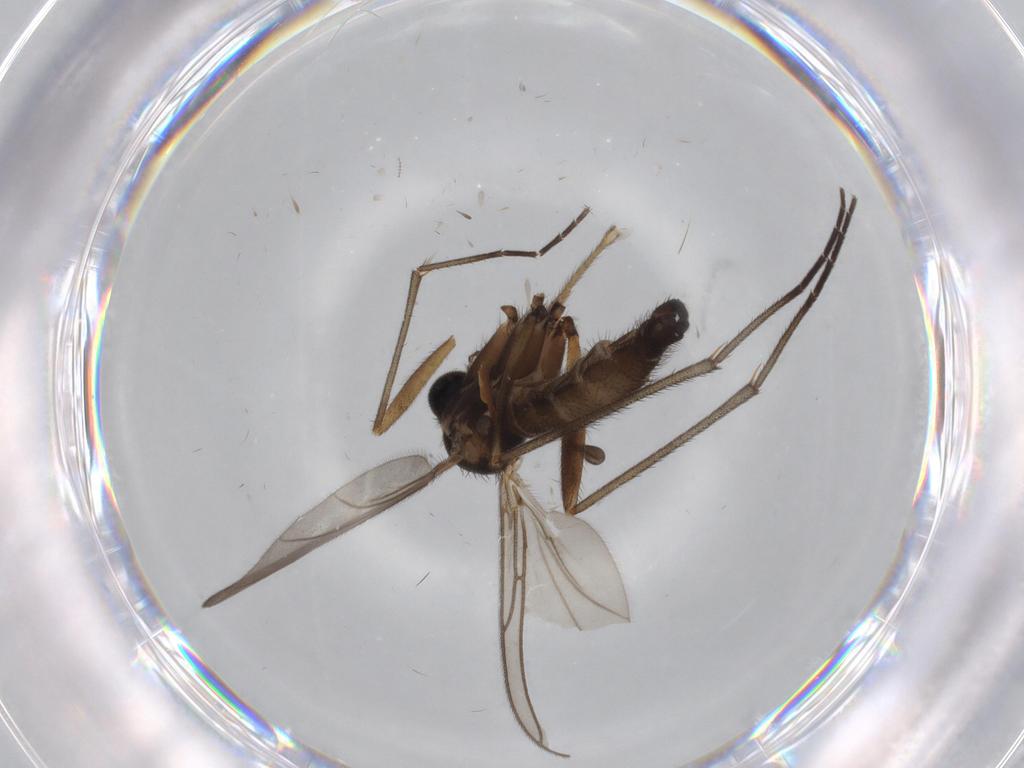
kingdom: Animalia
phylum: Arthropoda
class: Insecta
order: Diptera
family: Sciaridae
